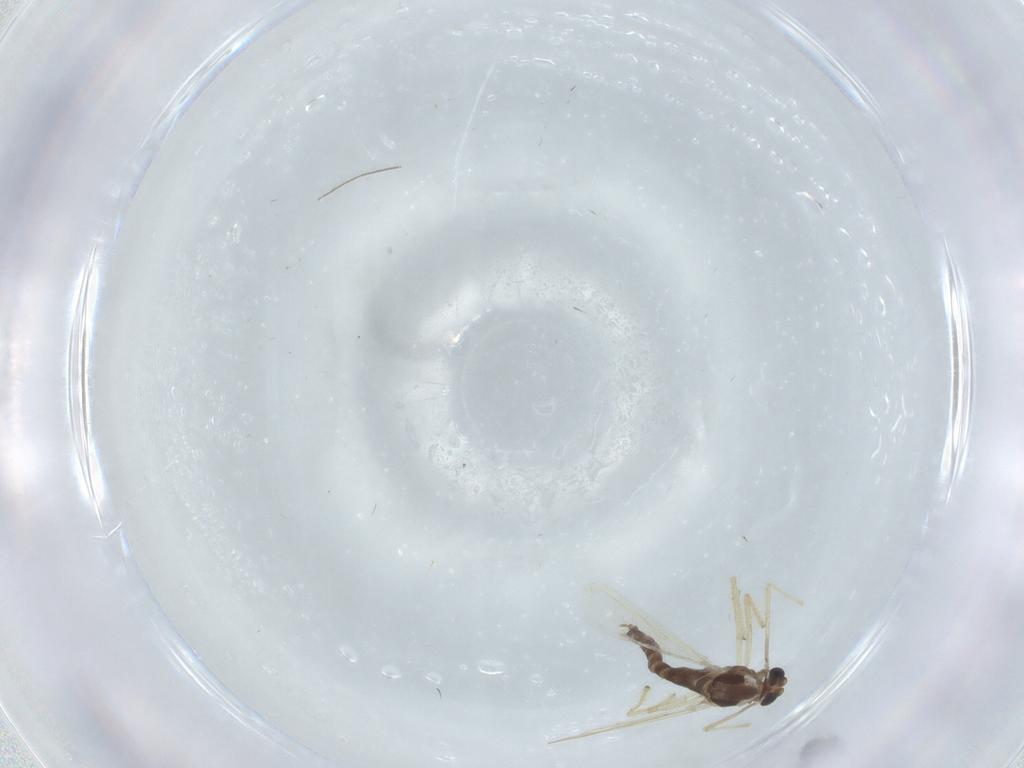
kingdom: Animalia
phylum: Arthropoda
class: Insecta
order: Diptera
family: Chironomidae
